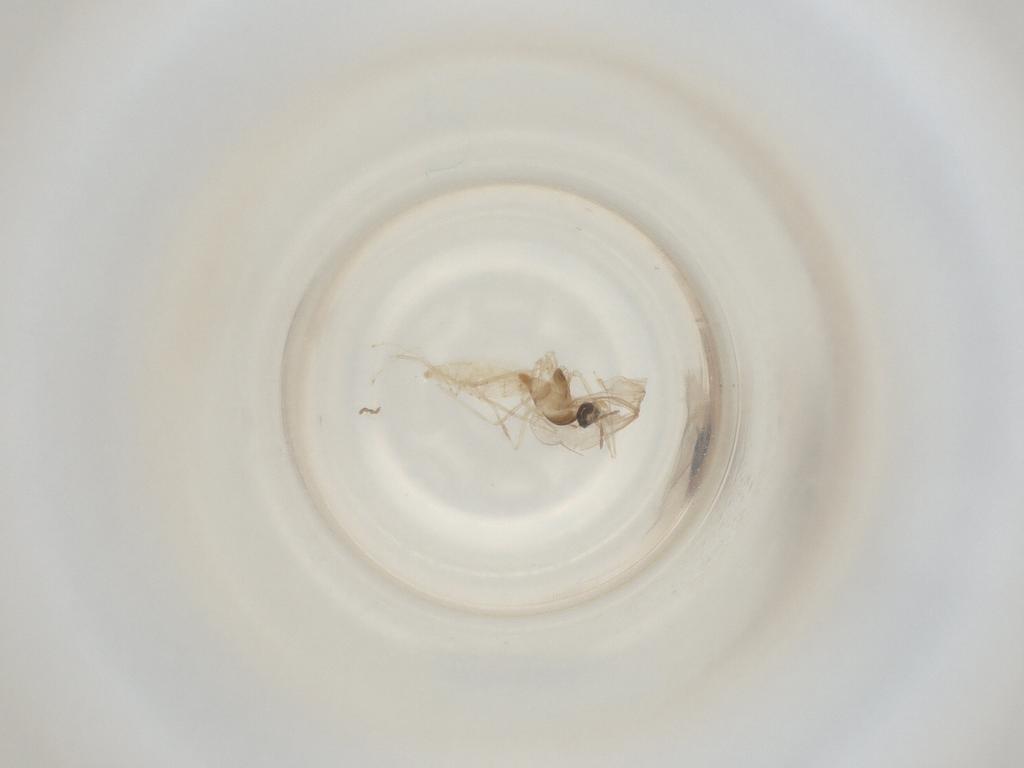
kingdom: Animalia
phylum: Arthropoda
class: Insecta
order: Diptera
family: Cecidomyiidae
